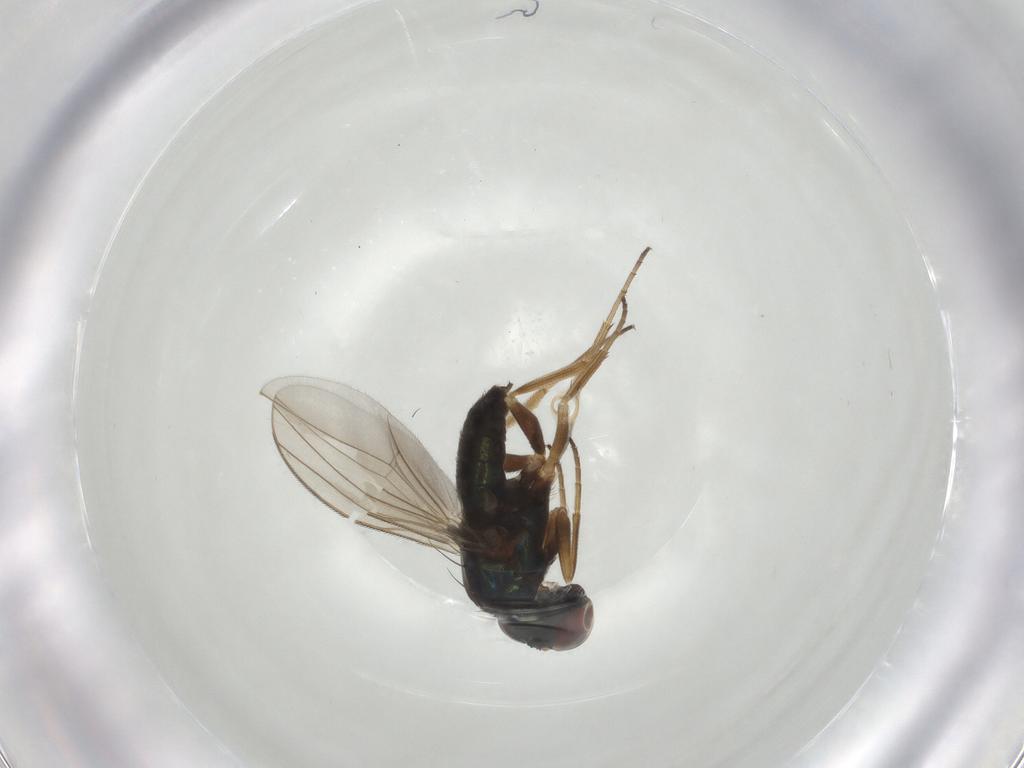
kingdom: Animalia
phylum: Arthropoda
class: Insecta
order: Diptera
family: Dolichopodidae
